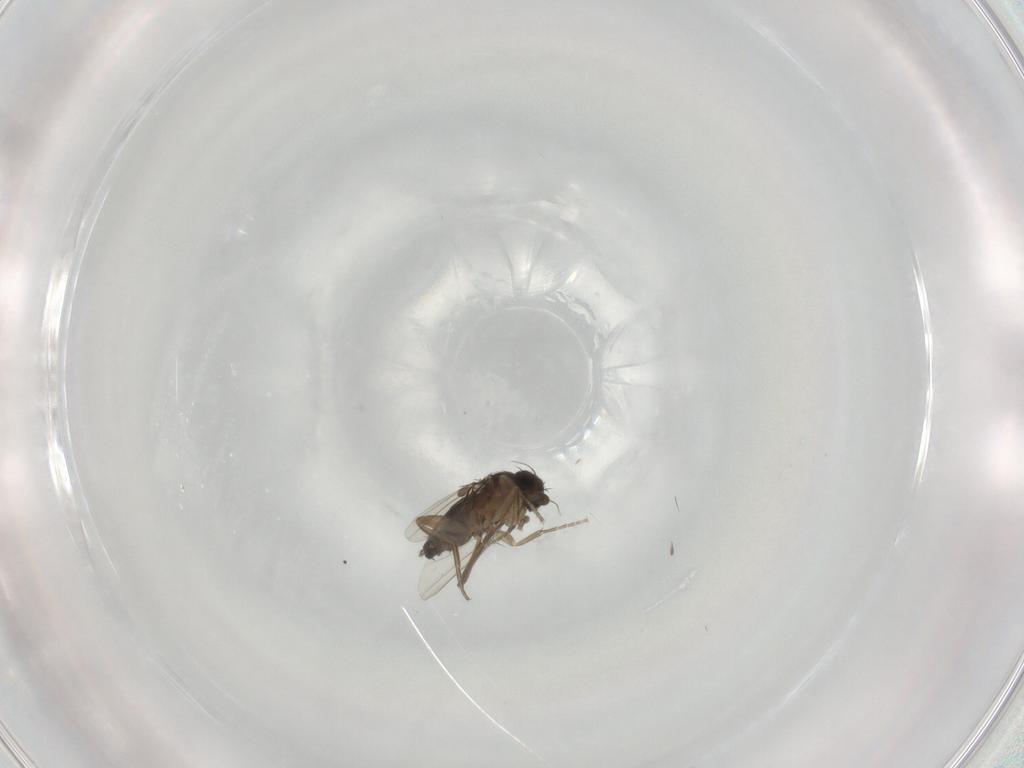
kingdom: Animalia
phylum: Arthropoda
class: Insecta
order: Diptera
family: Phoridae
